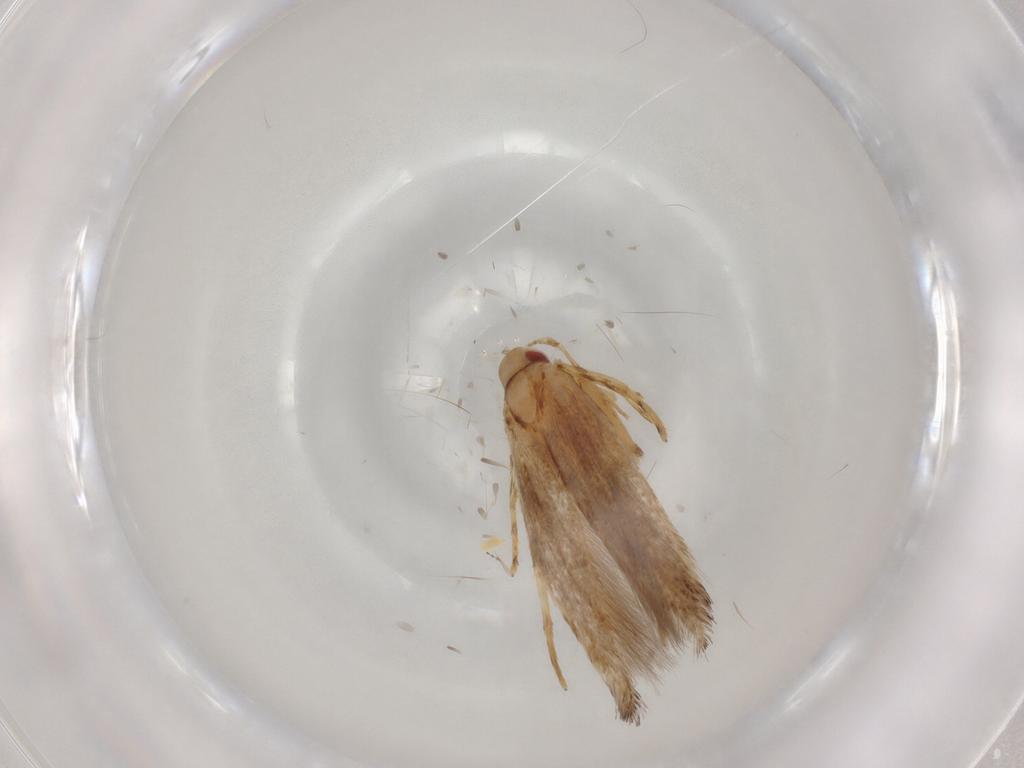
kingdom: Animalia
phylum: Arthropoda
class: Insecta
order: Lepidoptera
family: Cosmopterigidae
